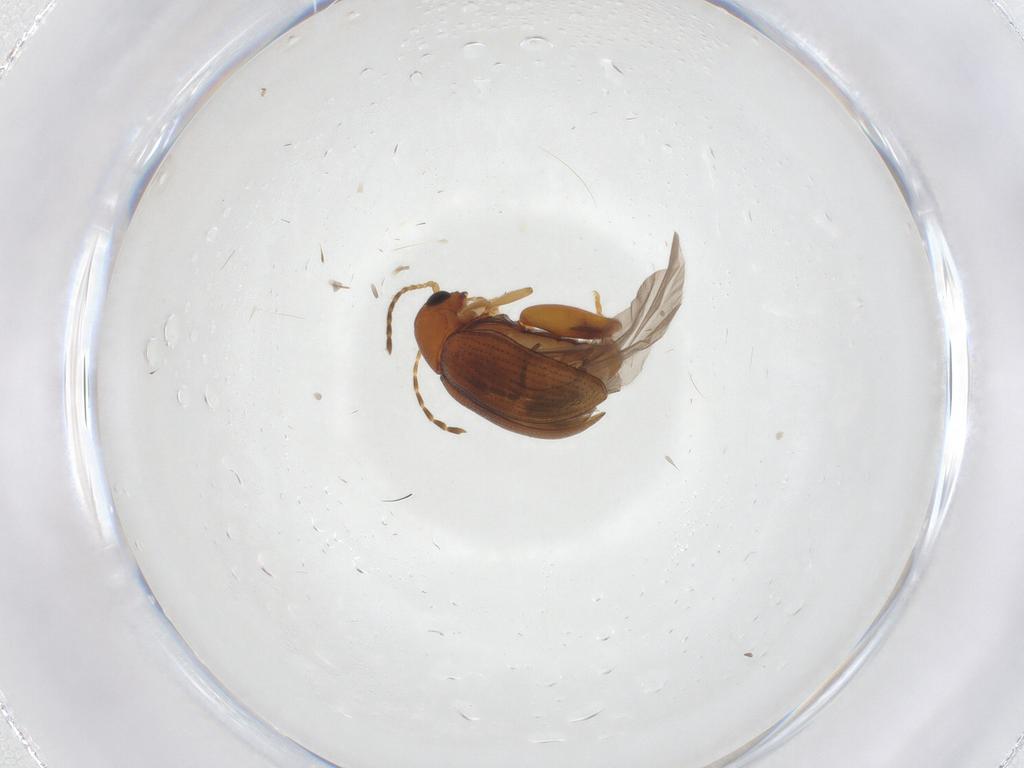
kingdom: Animalia
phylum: Arthropoda
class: Insecta
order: Coleoptera
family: Chrysomelidae
